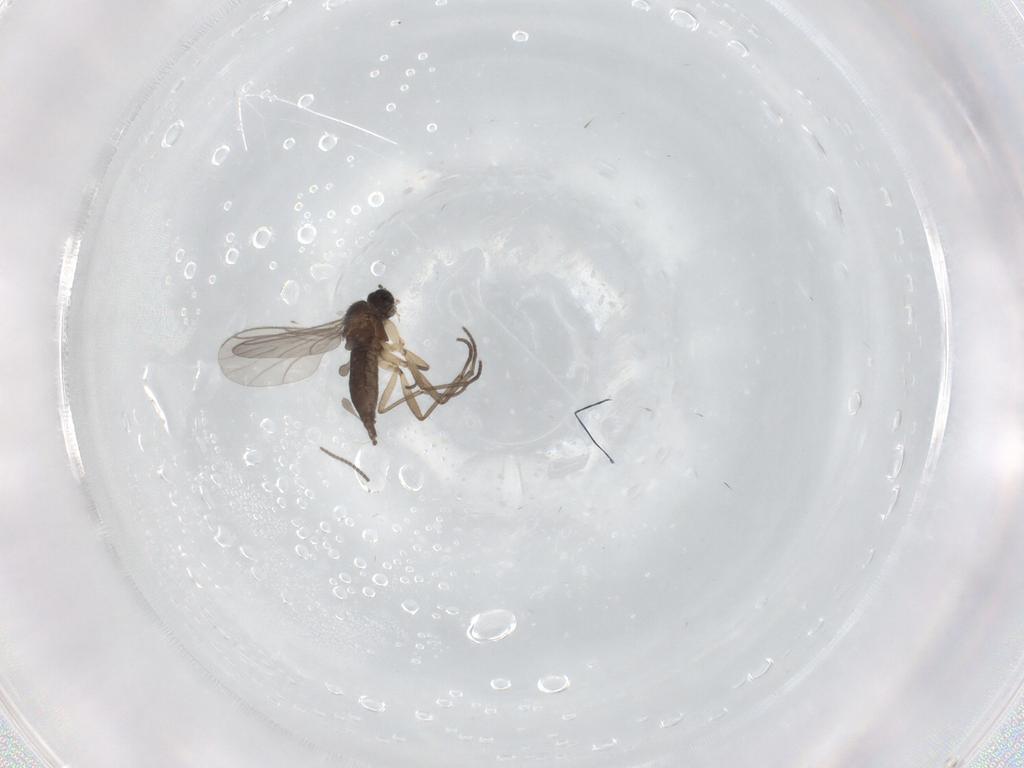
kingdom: Animalia
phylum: Arthropoda
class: Insecta
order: Diptera
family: Sciaridae
